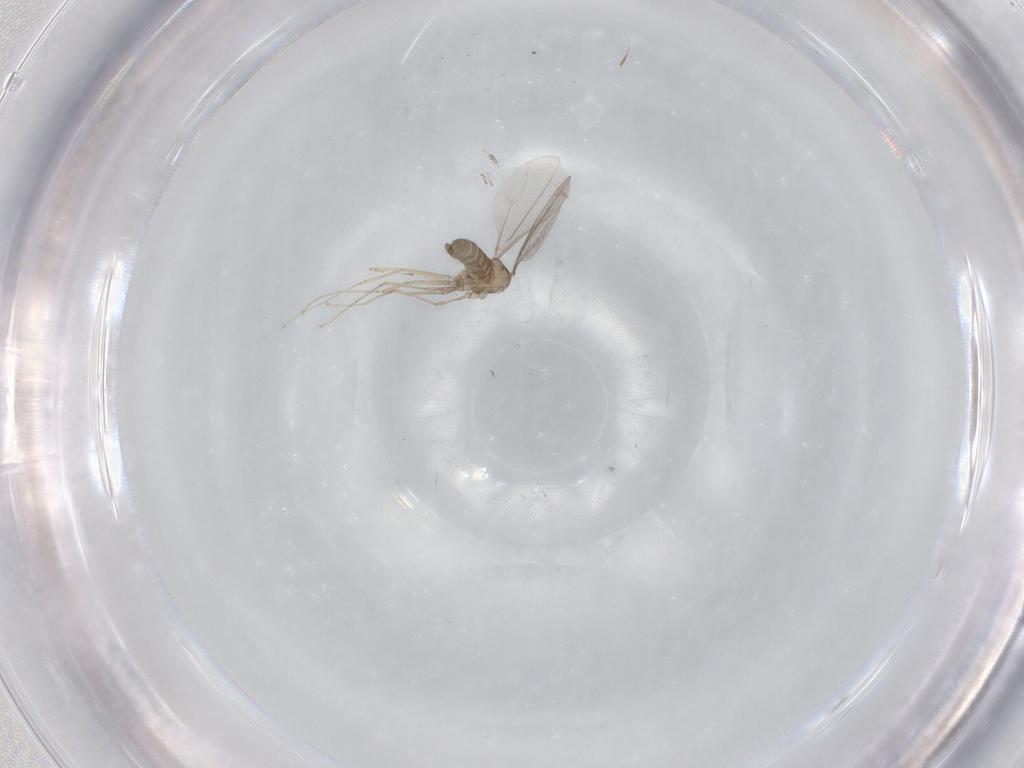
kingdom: Animalia
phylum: Arthropoda
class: Insecta
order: Diptera
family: Cecidomyiidae
